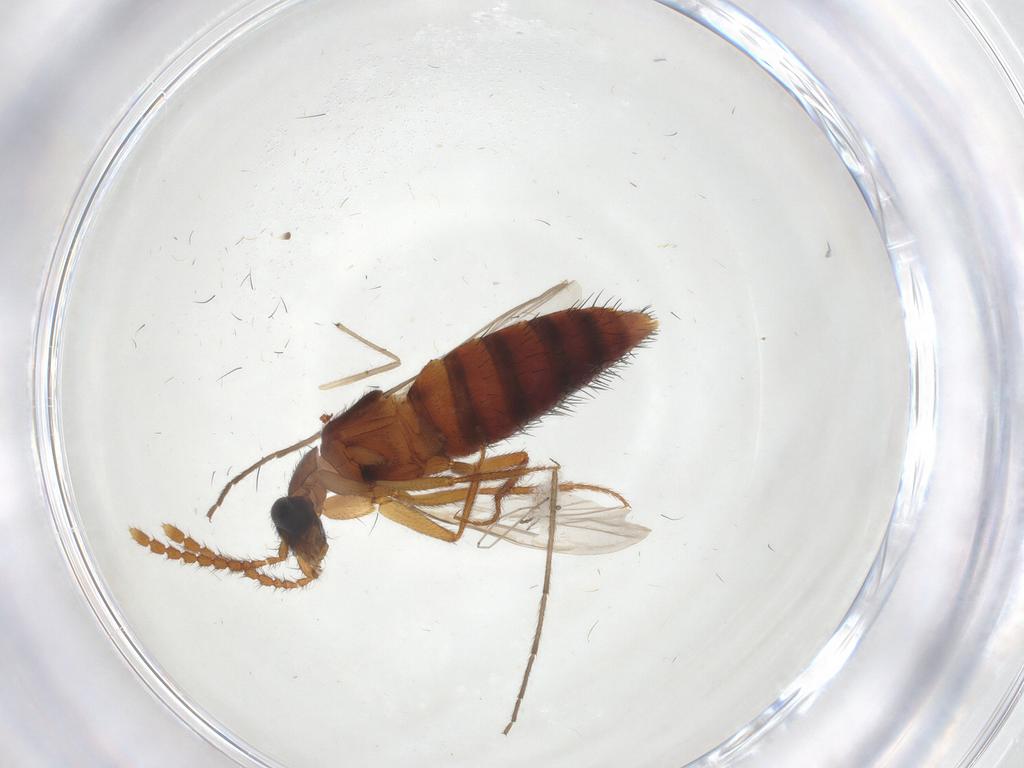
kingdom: Animalia
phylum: Arthropoda
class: Insecta
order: Coleoptera
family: Staphylinidae
